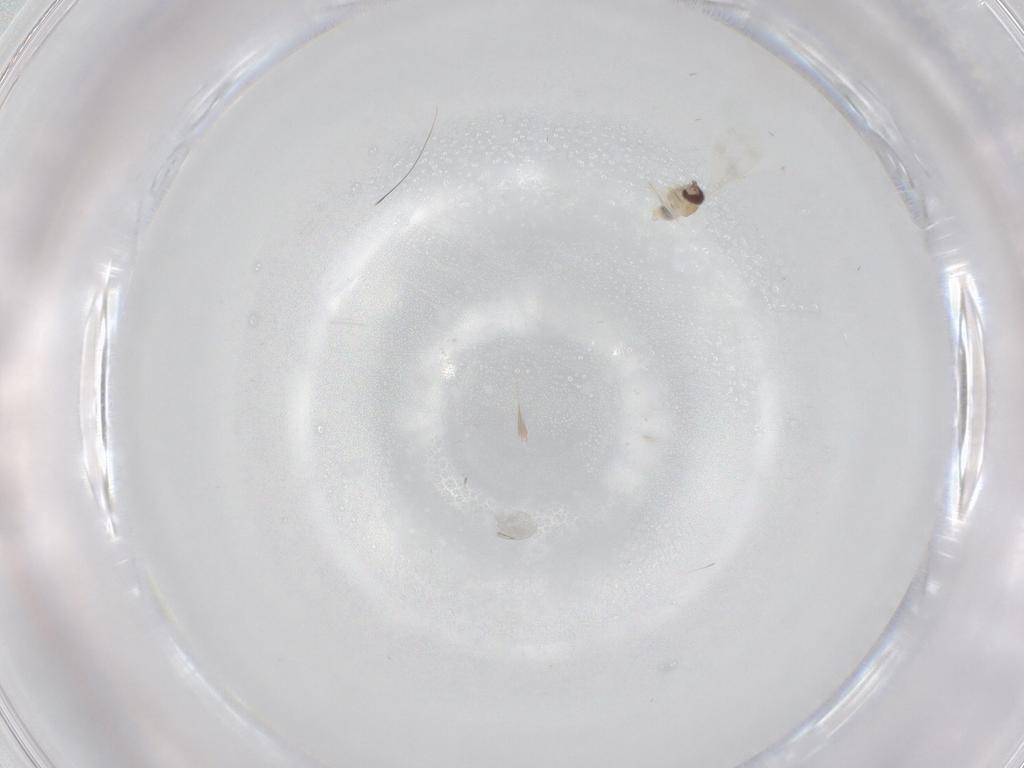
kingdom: Animalia
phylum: Arthropoda
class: Insecta
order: Diptera
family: Cecidomyiidae
